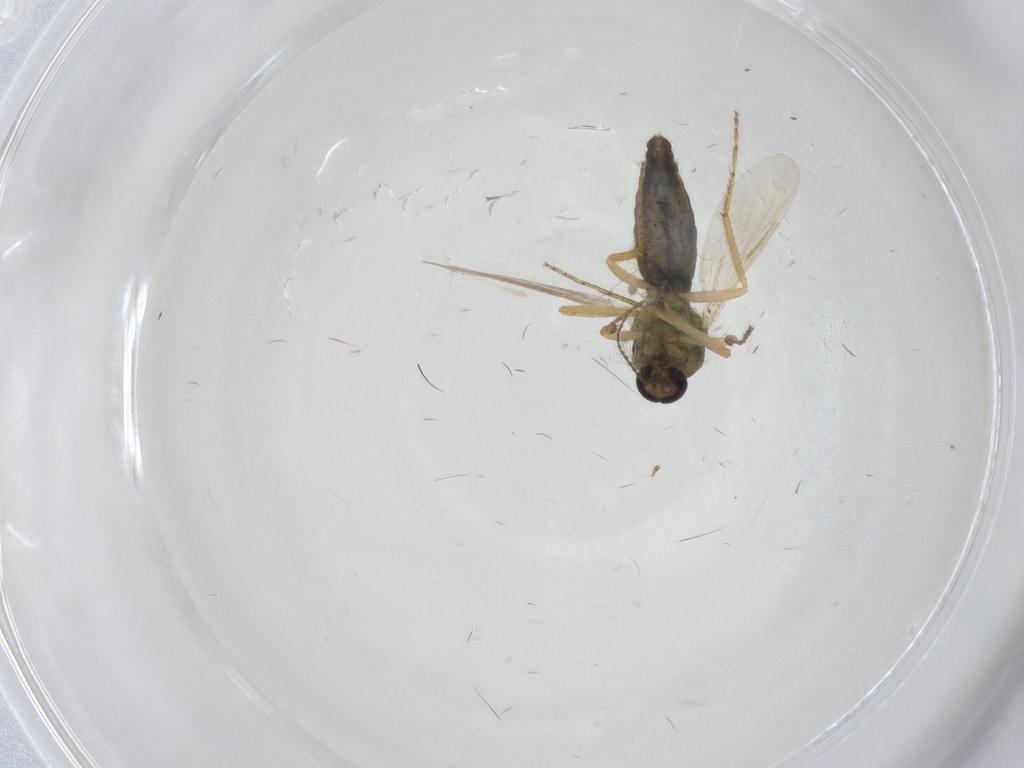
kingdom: Animalia
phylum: Arthropoda
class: Insecta
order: Diptera
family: Ceratopogonidae
